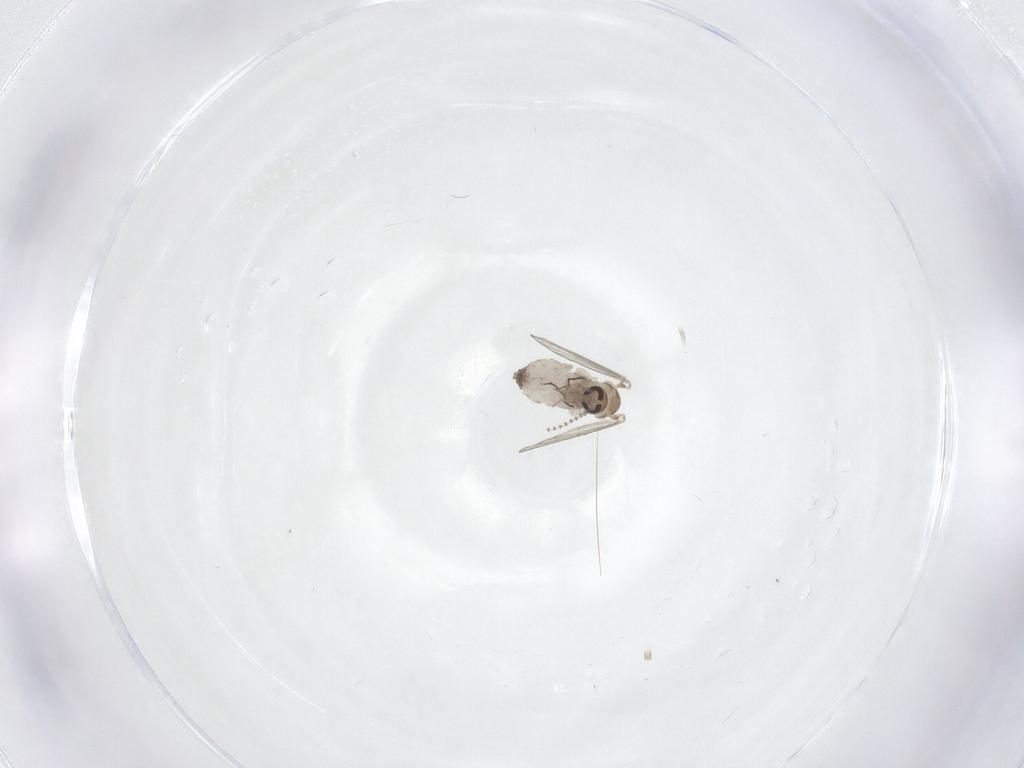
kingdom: Animalia
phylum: Arthropoda
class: Insecta
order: Diptera
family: Psychodidae
